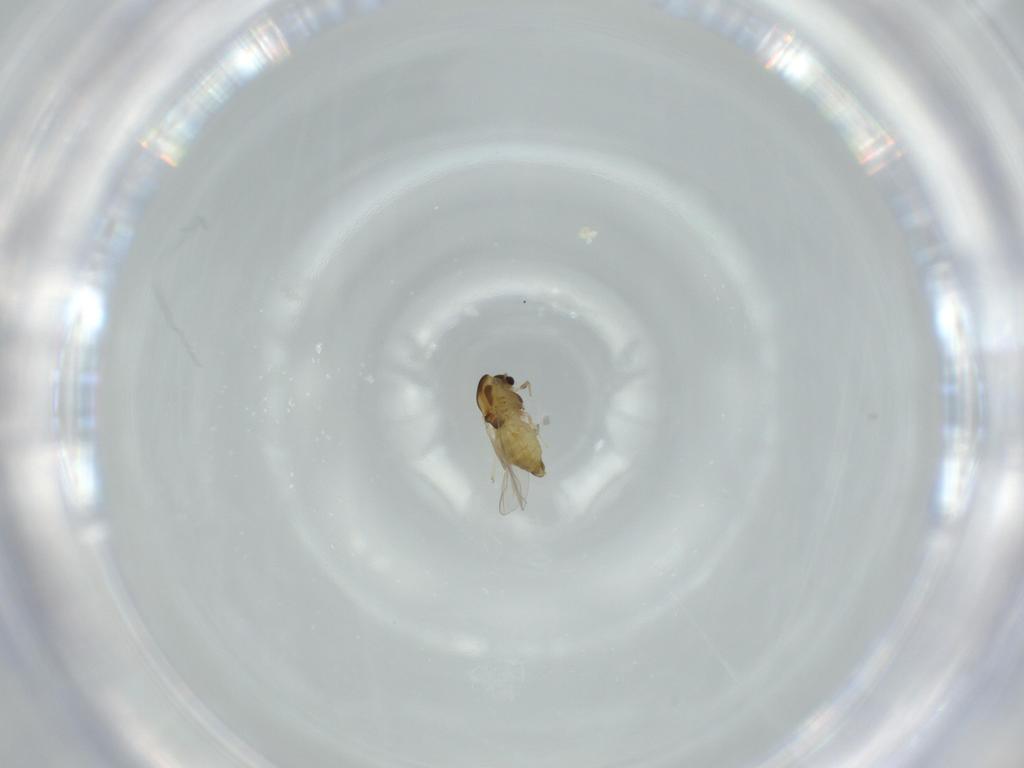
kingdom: Animalia
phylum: Arthropoda
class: Insecta
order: Diptera
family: Chironomidae
